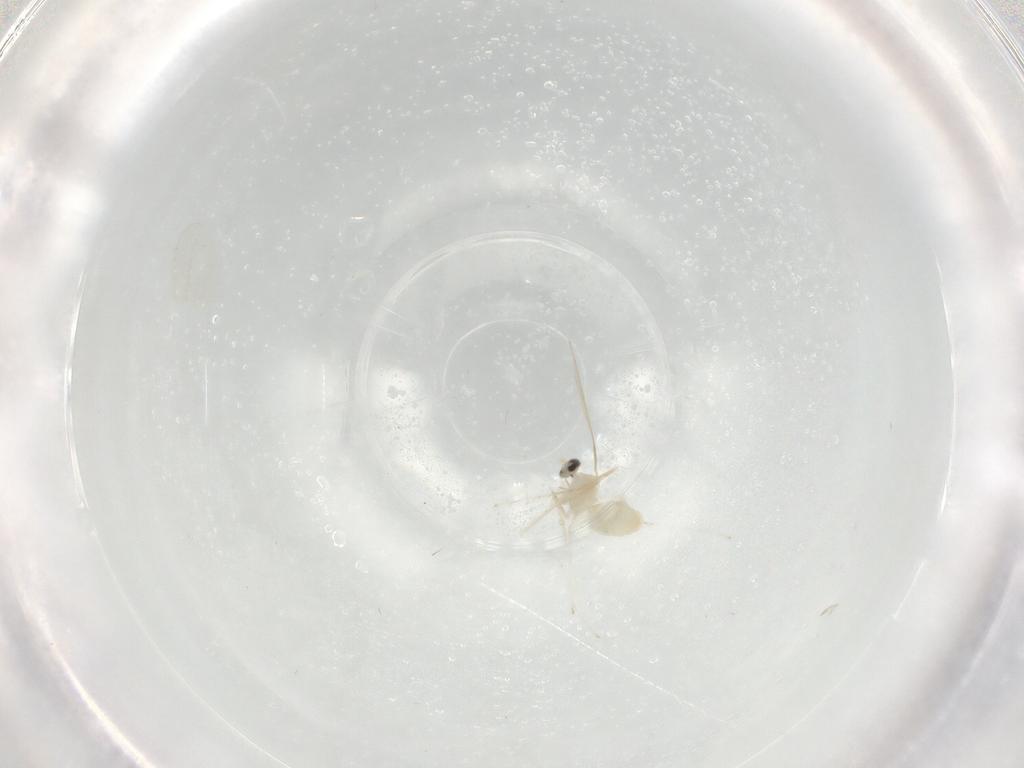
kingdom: Animalia
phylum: Arthropoda
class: Insecta
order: Diptera
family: Cecidomyiidae
